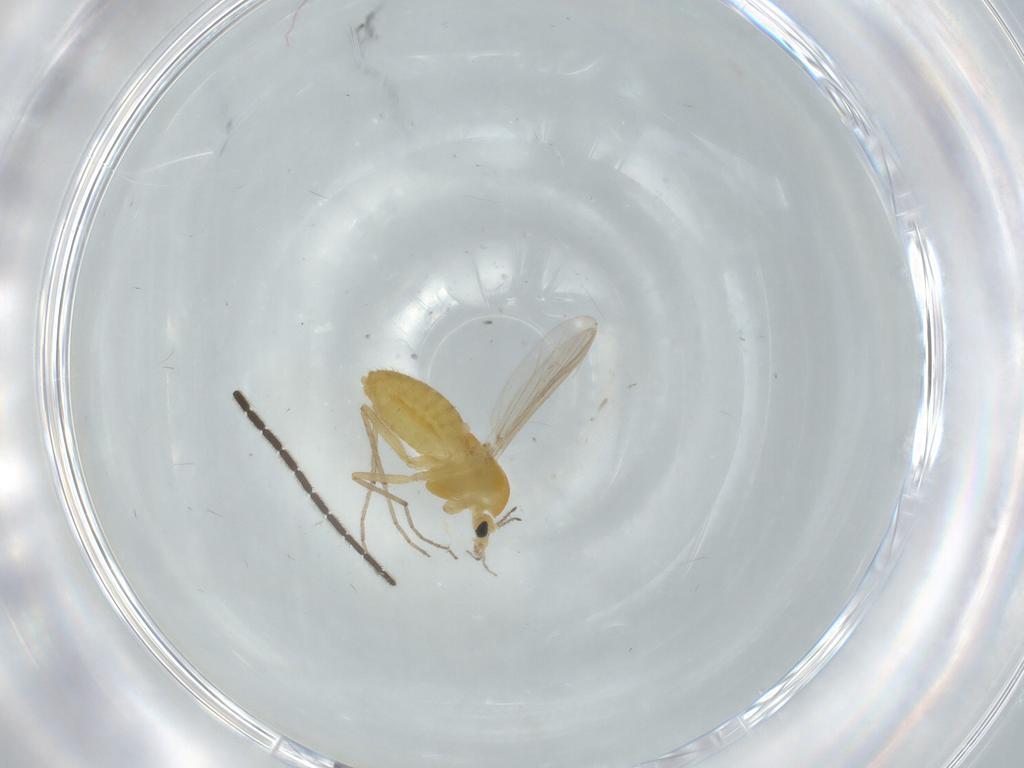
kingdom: Animalia
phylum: Arthropoda
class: Insecta
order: Diptera
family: Chironomidae
